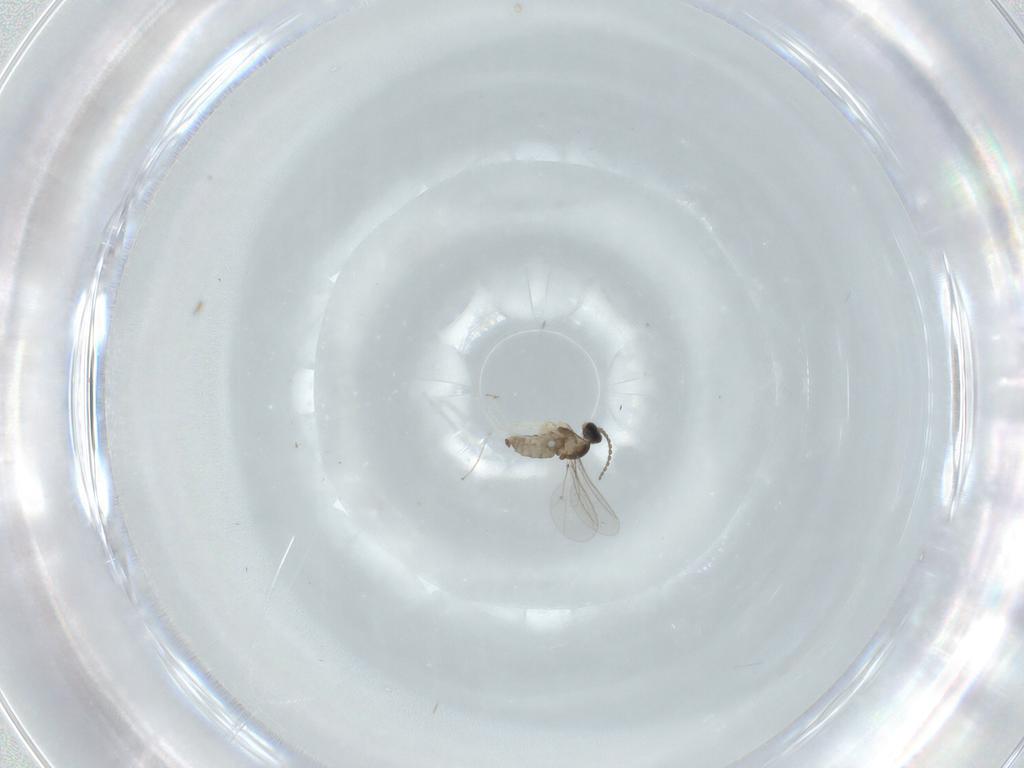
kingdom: Animalia
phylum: Arthropoda
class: Insecta
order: Diptera
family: Cecidomyiidae
